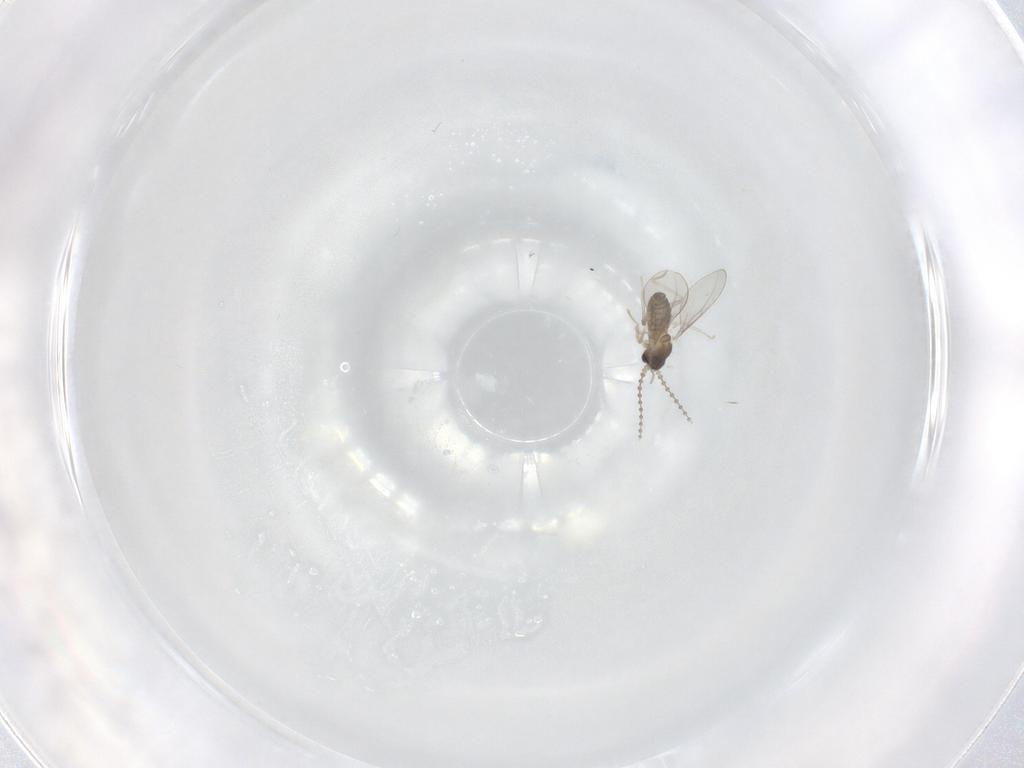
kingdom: Animalia
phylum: Arthropoda
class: Insecta
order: Diptera
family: Cecidomyiidae
